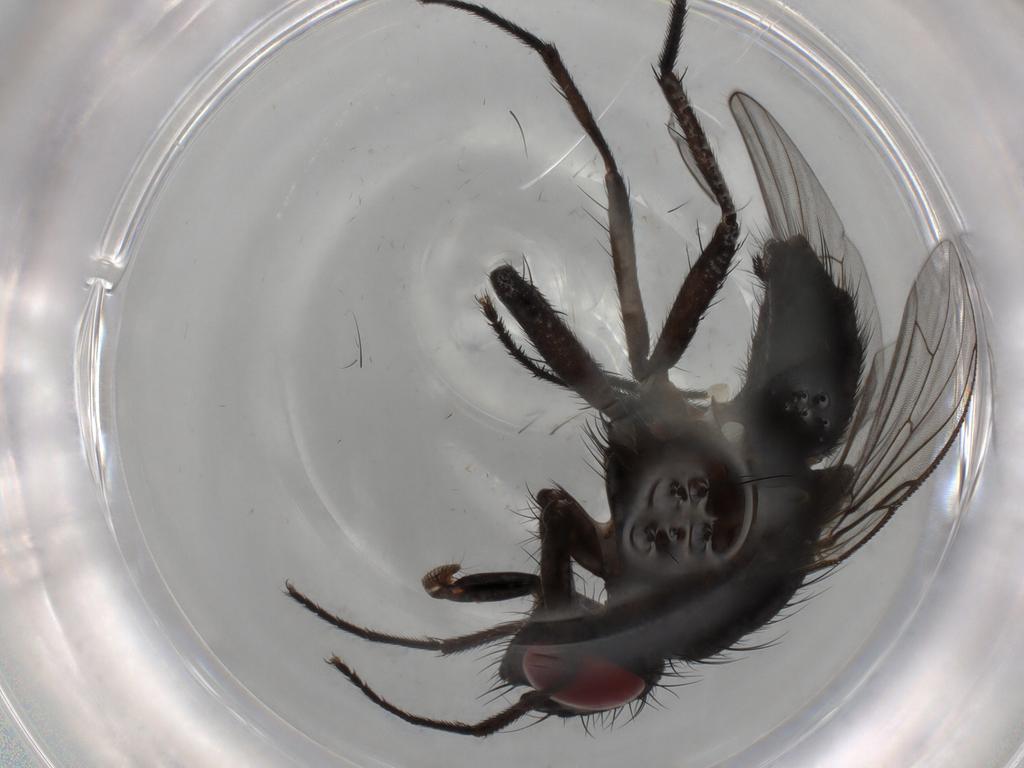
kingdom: Animalia
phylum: Arthropoda
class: Insecta
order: Diptera
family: Muscidae
